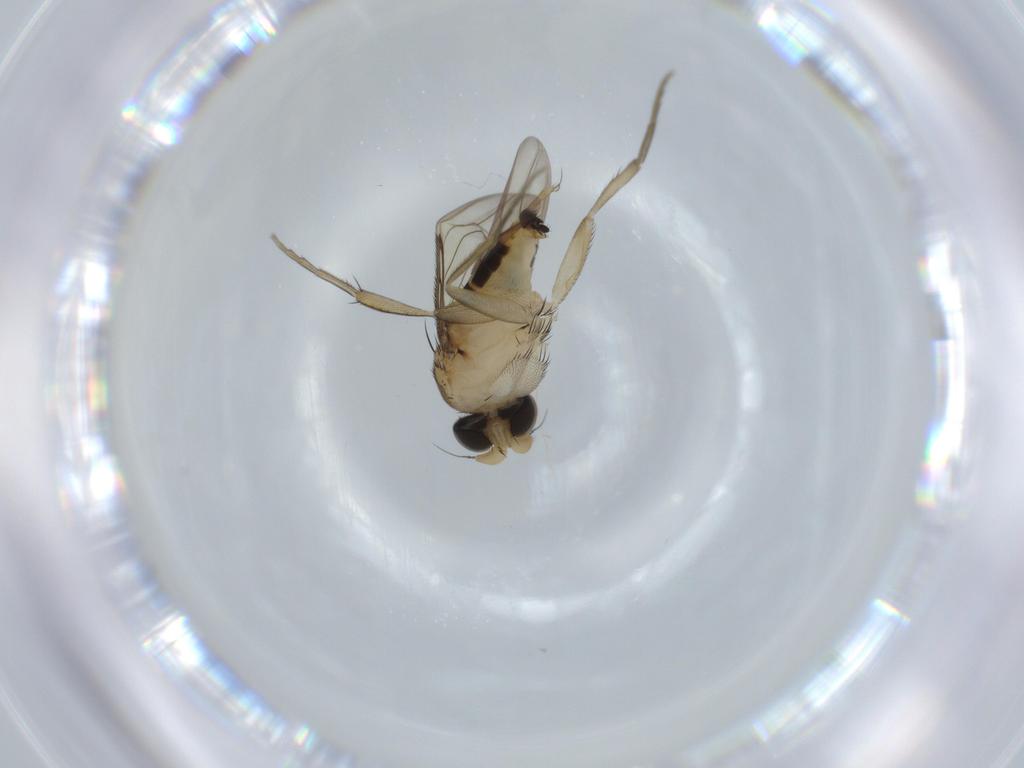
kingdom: Animalia
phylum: Arthropoda
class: Insecta
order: Diptera
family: Phoridae
